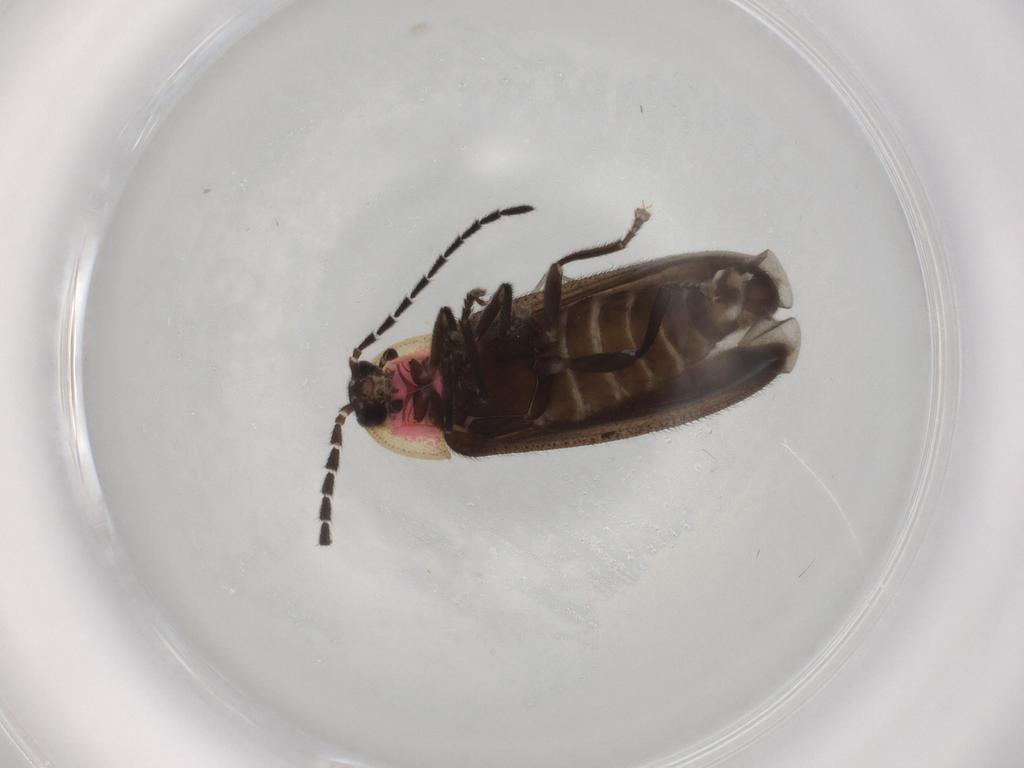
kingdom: Animalia
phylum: Arthropoda
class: Insecta
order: Coleoptera
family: Lampyridae
